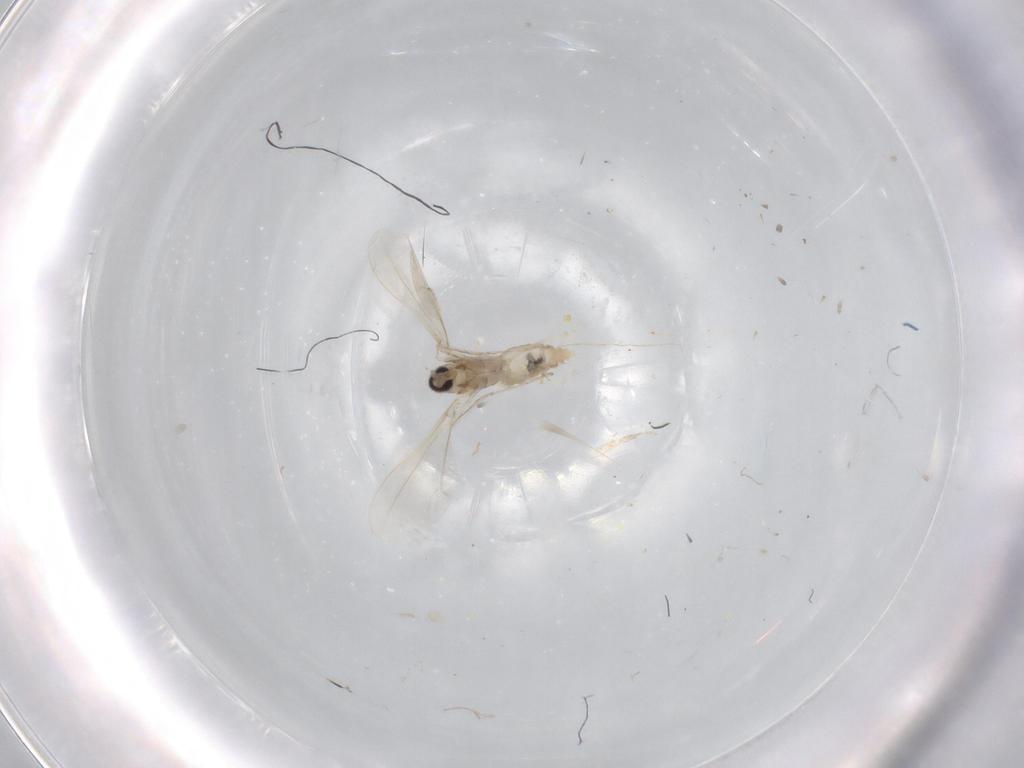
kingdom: Animalia
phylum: Arthropoda
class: Insecta
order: Diptera
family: Cecidomyiidae
